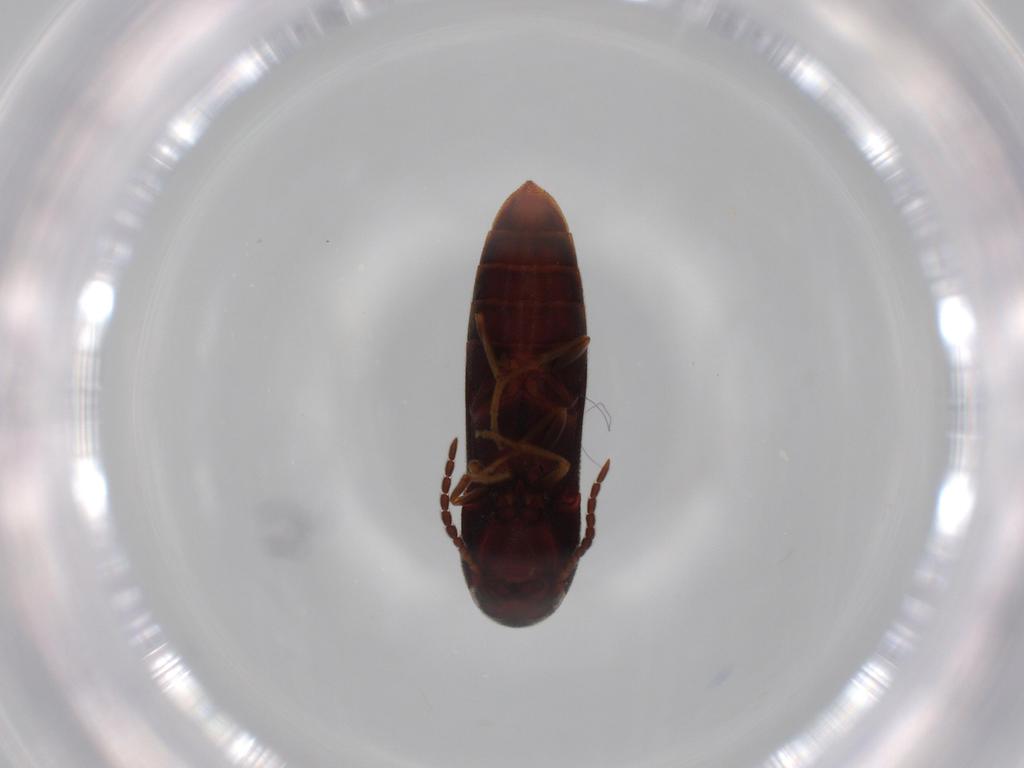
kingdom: Animalia
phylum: Arthropoda
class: Insecta
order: Coleoptera
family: Eucnemidae
